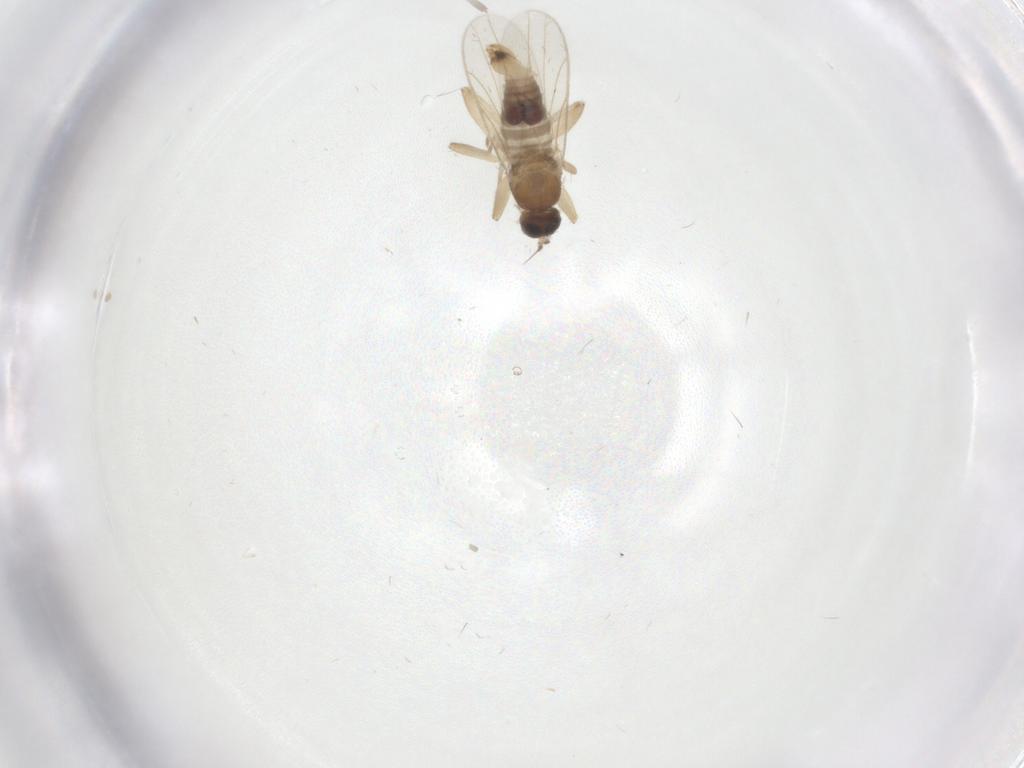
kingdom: Animalia
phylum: Arthropoda
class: Insecta
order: Diptera
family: Hybotidae
